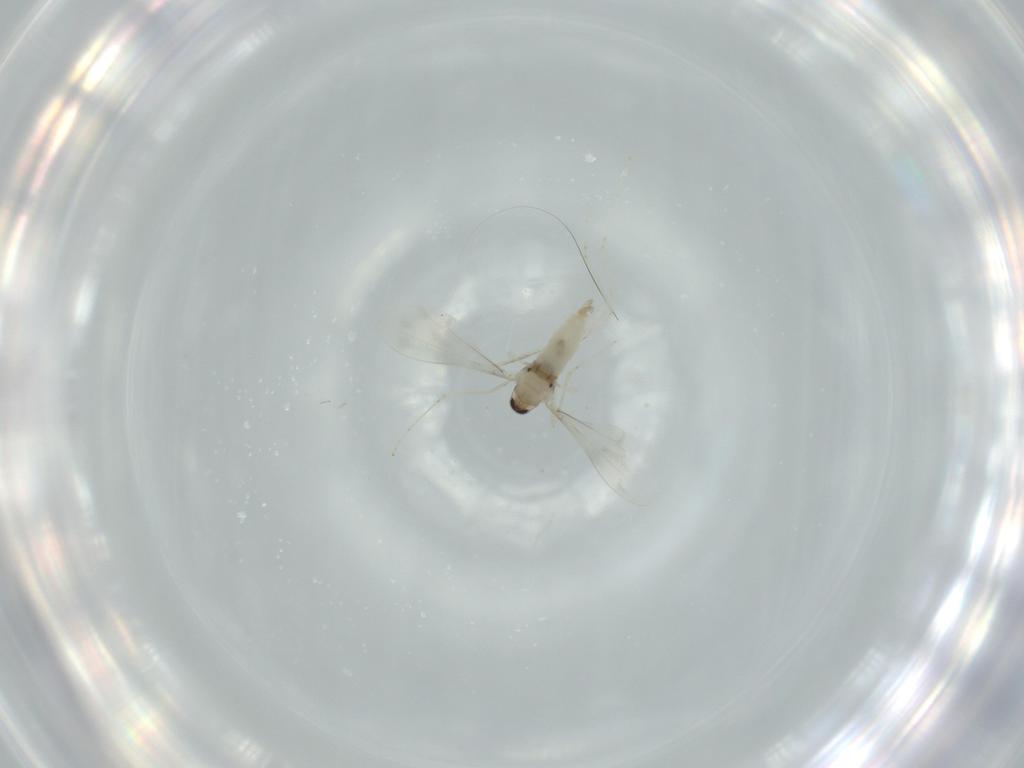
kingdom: Animalia
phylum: Arthropoda
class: Insecta
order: Diptera
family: Cecidomyiidae
